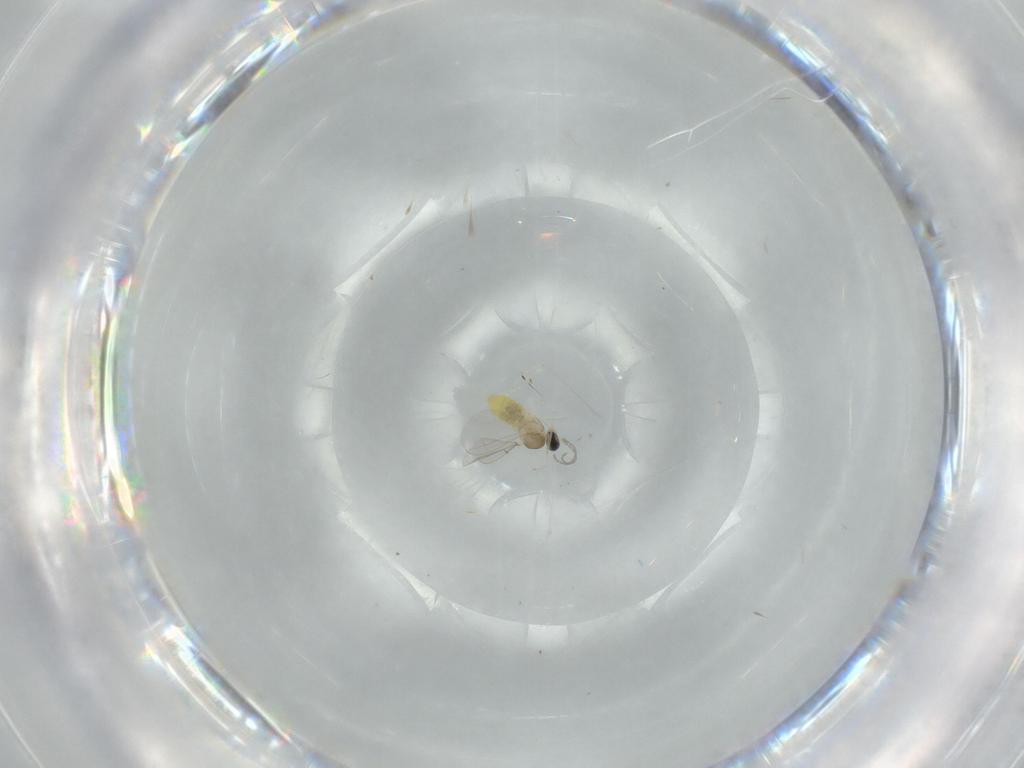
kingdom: Animalia
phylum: Arthropoda
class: Insecta
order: Diptera
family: Cecidomyiidae
